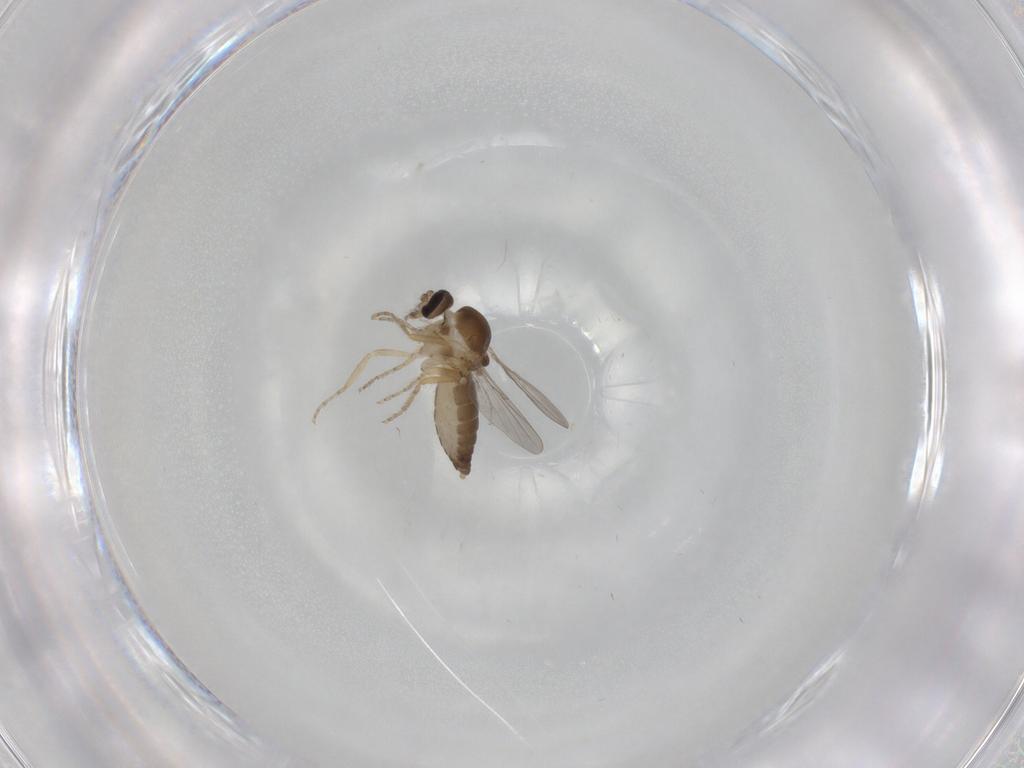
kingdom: Animalia
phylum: Arthropoda
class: Insecta
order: Diptera
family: Ceratopogonidae
